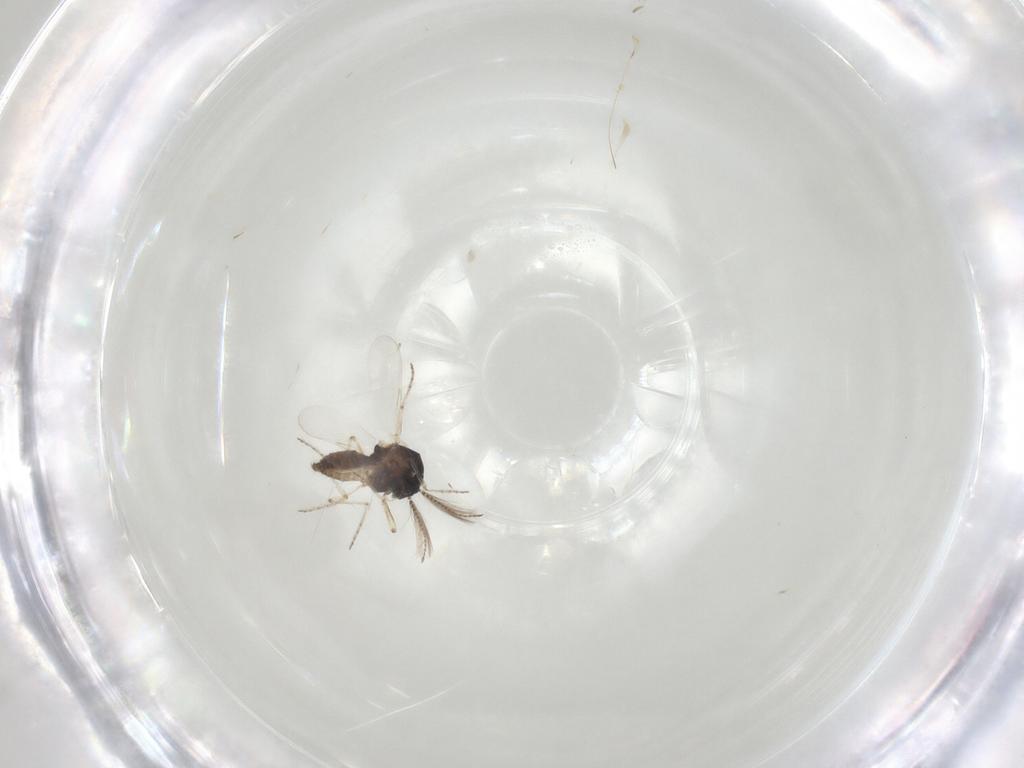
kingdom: Animalia
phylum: Arthropoda
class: Insecta
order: Diptera
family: Ceratopogonidae
